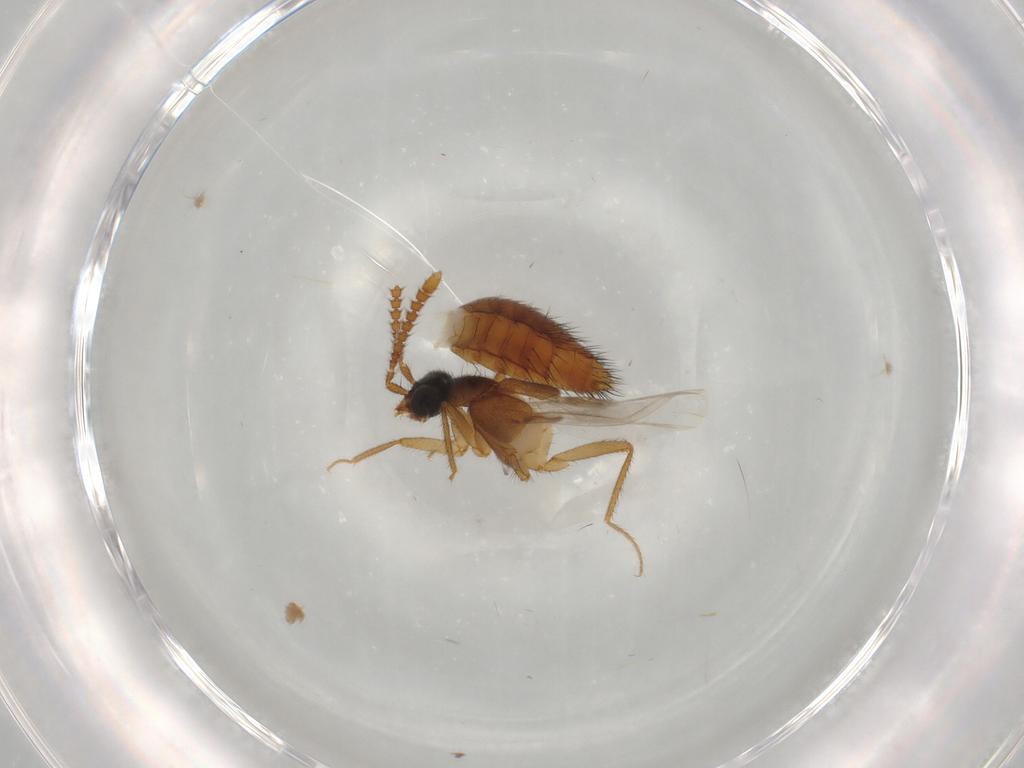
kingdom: Animalia
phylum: Arthropoda
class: Insecta
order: Coleoptera
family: Staphylinidae
